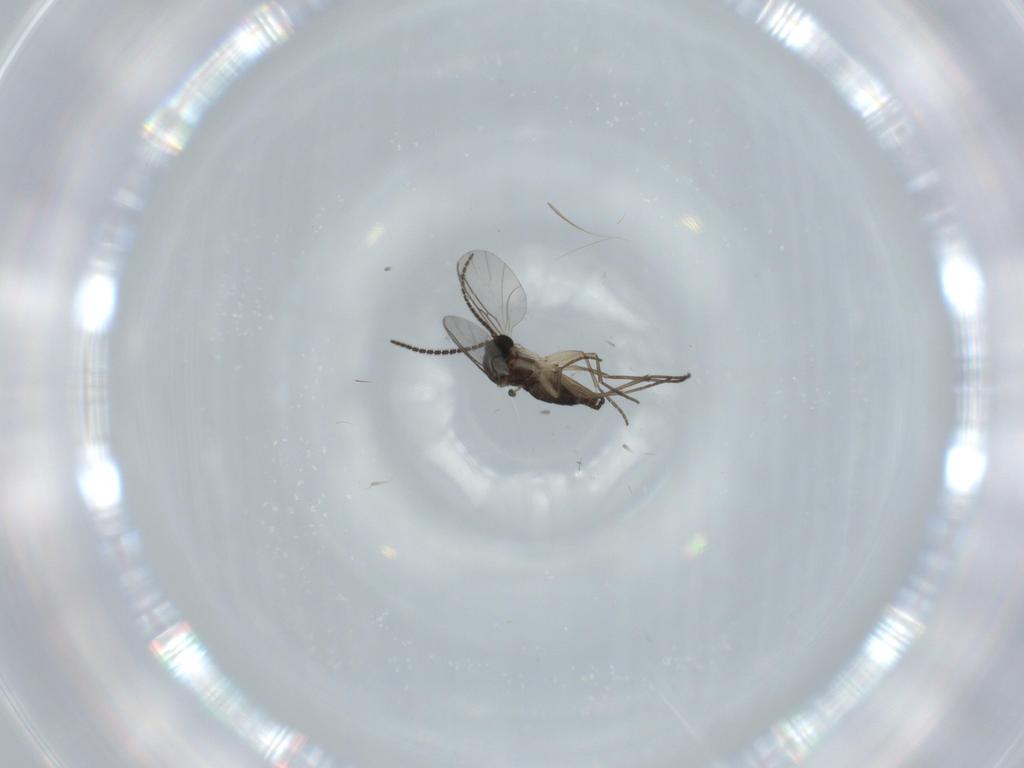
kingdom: Animalia
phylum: Arthropoda
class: Insecta
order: Diptera
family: Sciaridae
